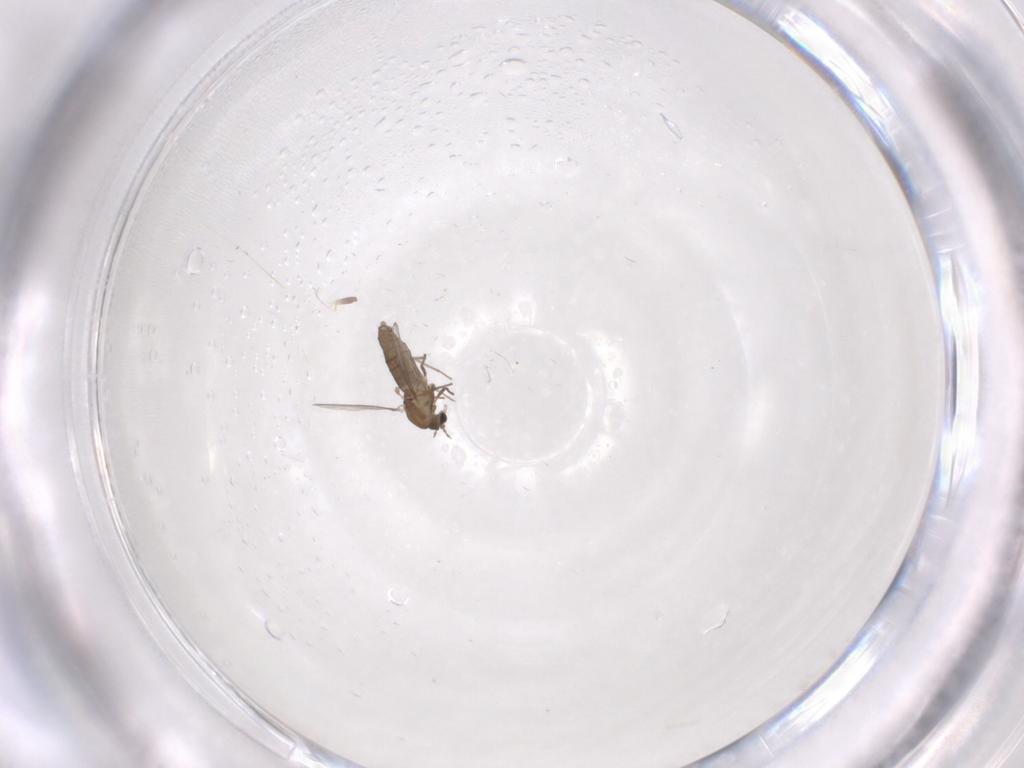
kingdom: Animalia
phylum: Arthropoda
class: Insecta
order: Diptera
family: Chironomidae
